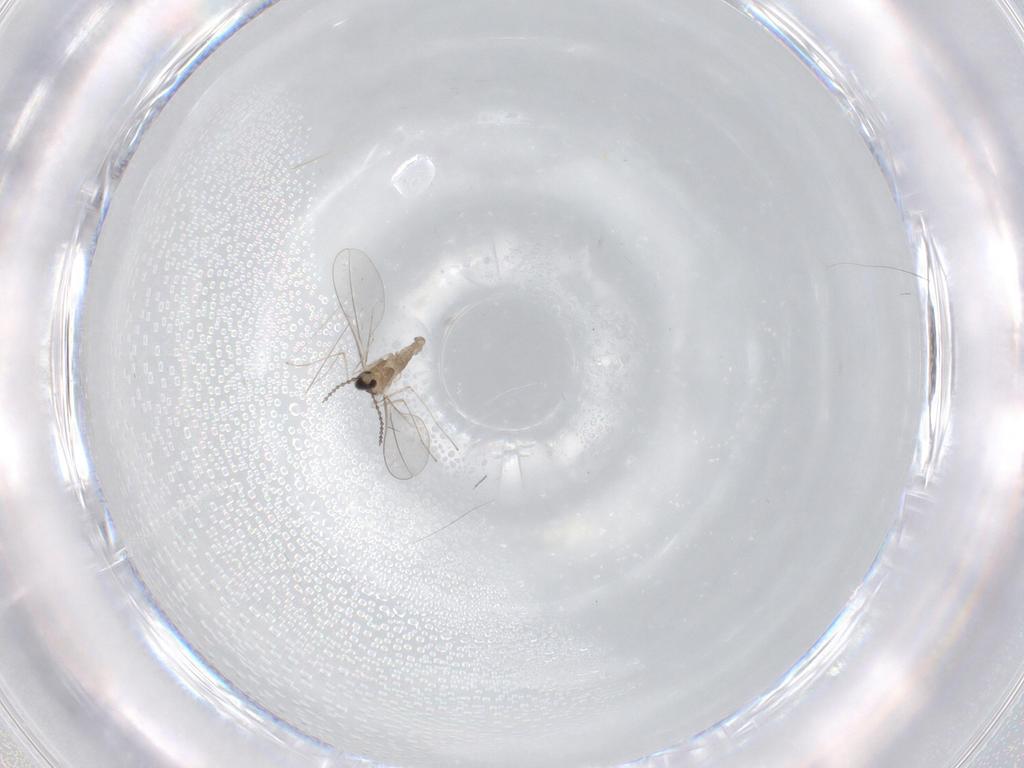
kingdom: Animalia
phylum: Arthropoda
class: Insecta
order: Diptera
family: Cecidomyiidae
